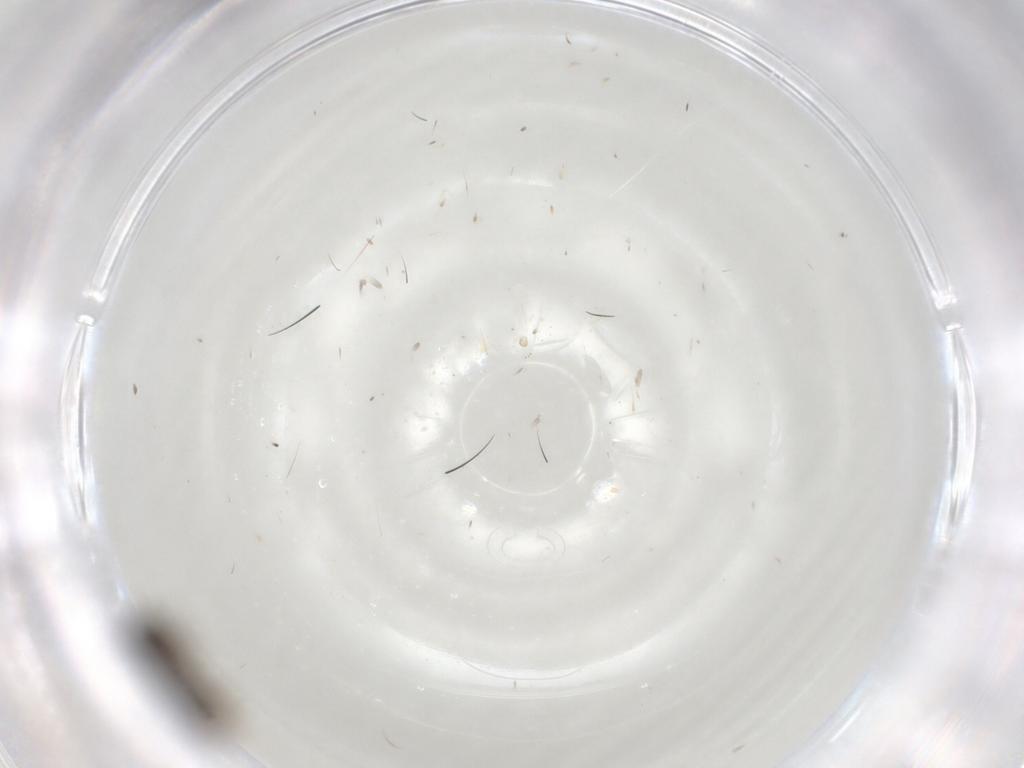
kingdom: Animalia
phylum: Arthropoda
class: Insecta
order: Diptera
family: Cecidomyiidae
